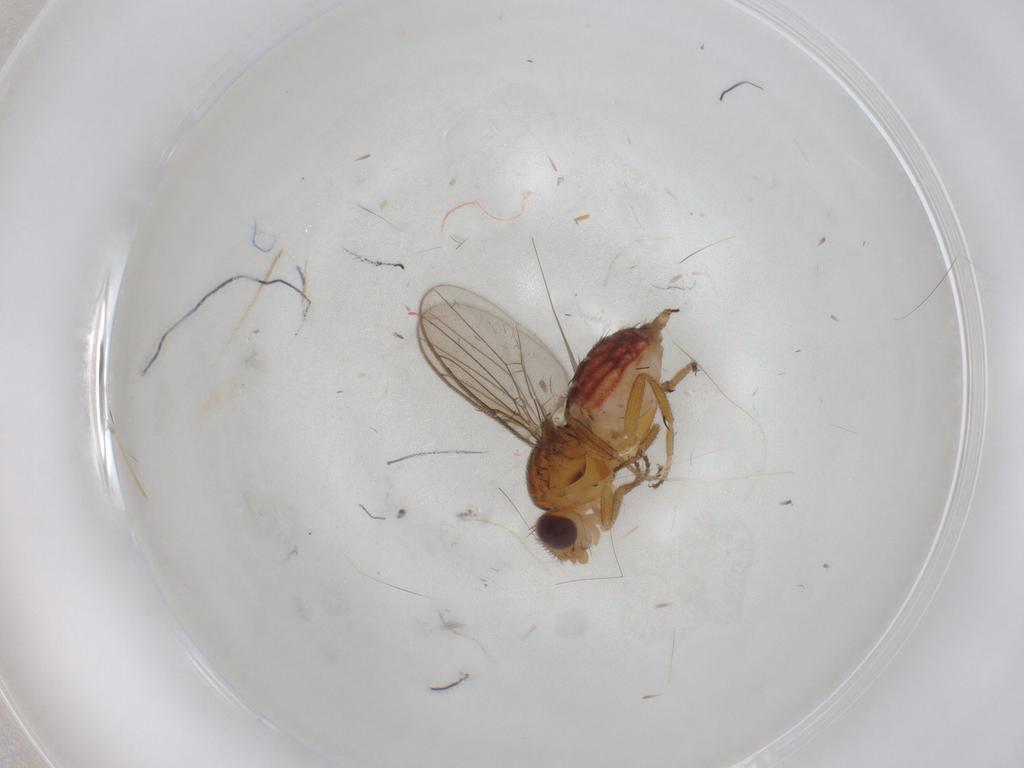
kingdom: Animalia
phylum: Arthropoda
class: Insecta
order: Diptera
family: Chloropidae
